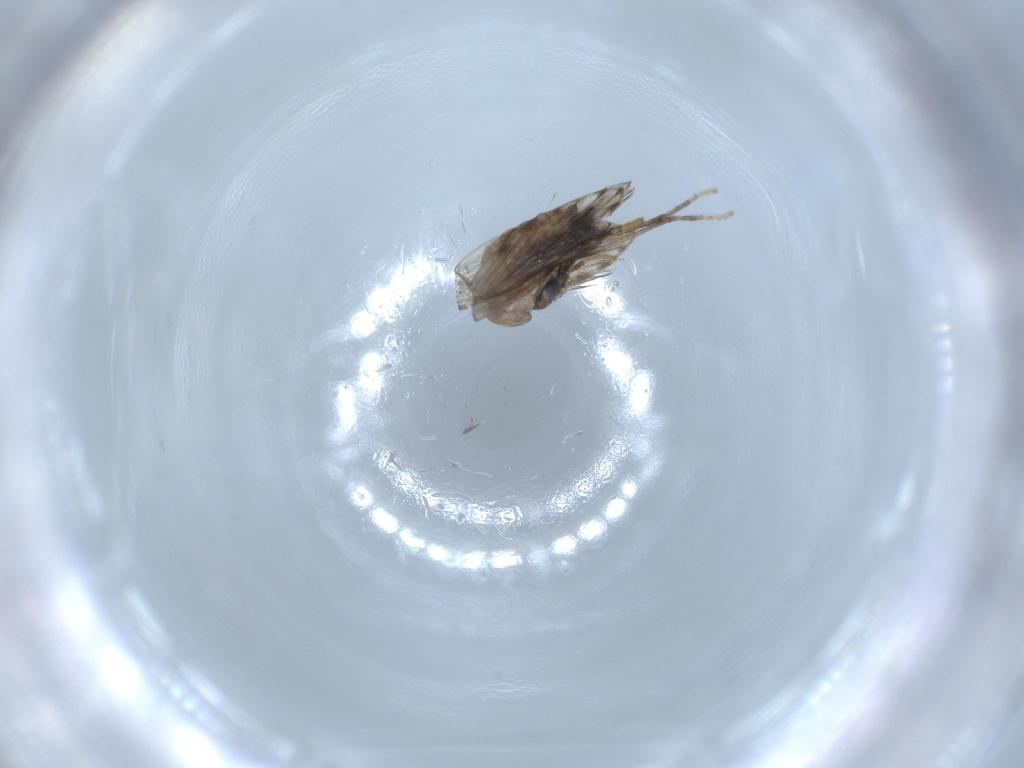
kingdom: Animalia
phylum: Arthropoda
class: Insecta
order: Diptera
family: Psychodidae
